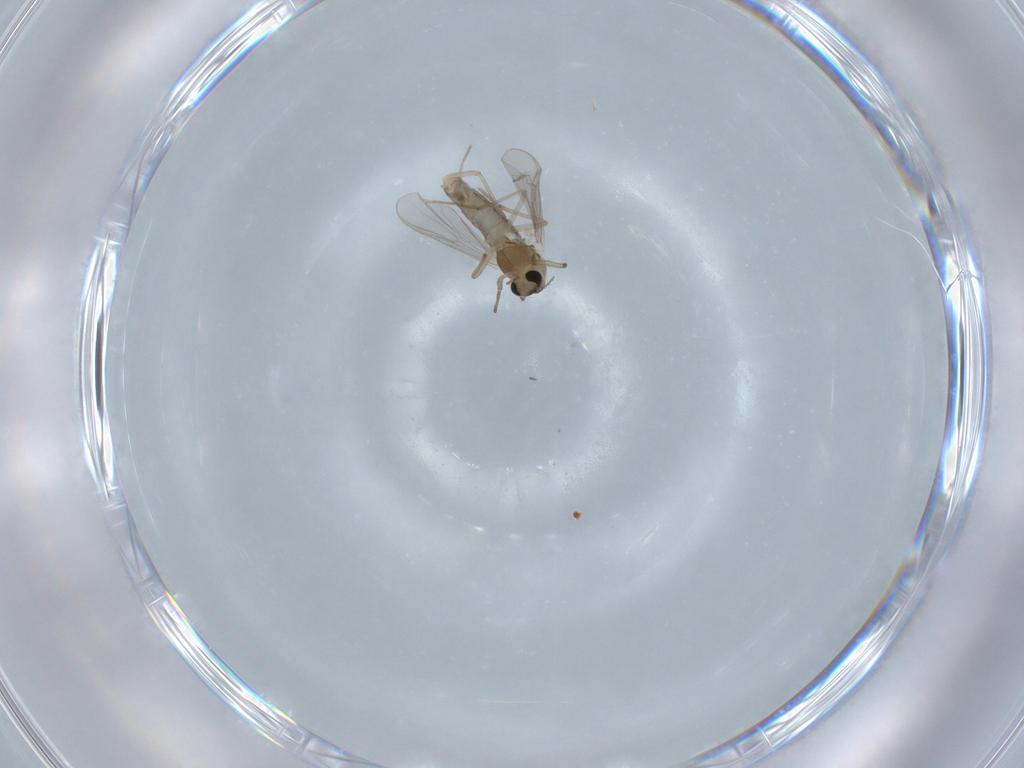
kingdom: Animalia
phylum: Arthropoda
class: Insecta
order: Diptera
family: Chironomidae
